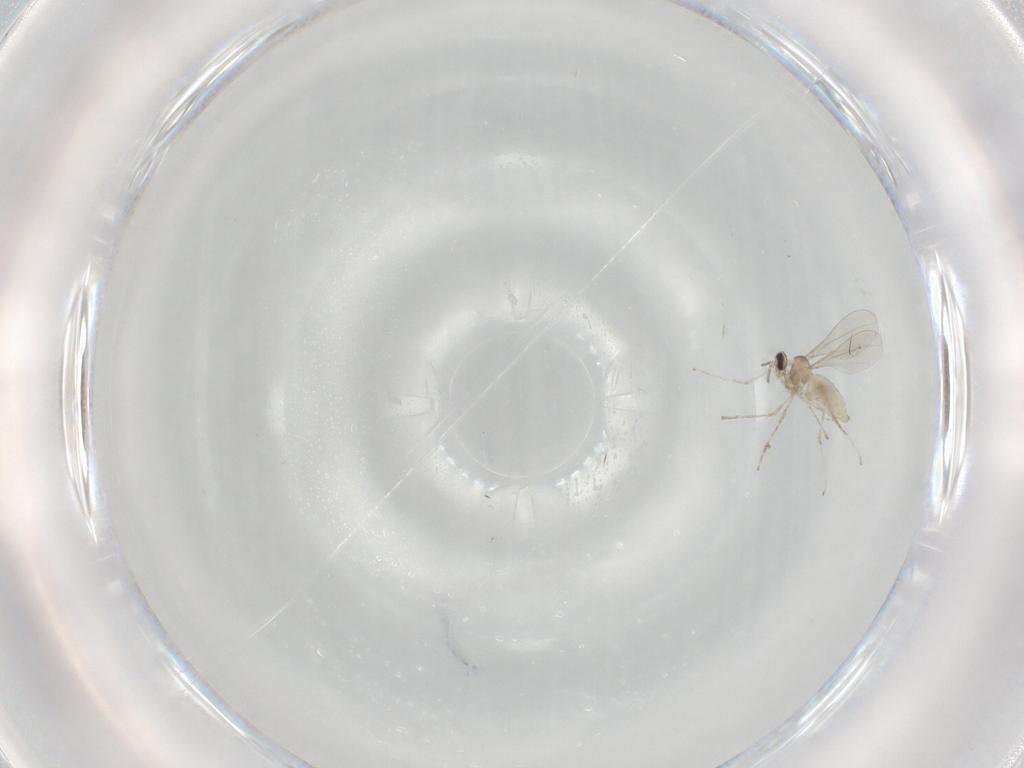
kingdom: Animalia
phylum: Arthropoda
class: Insecta
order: Diptera
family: Cecidomyiidae
